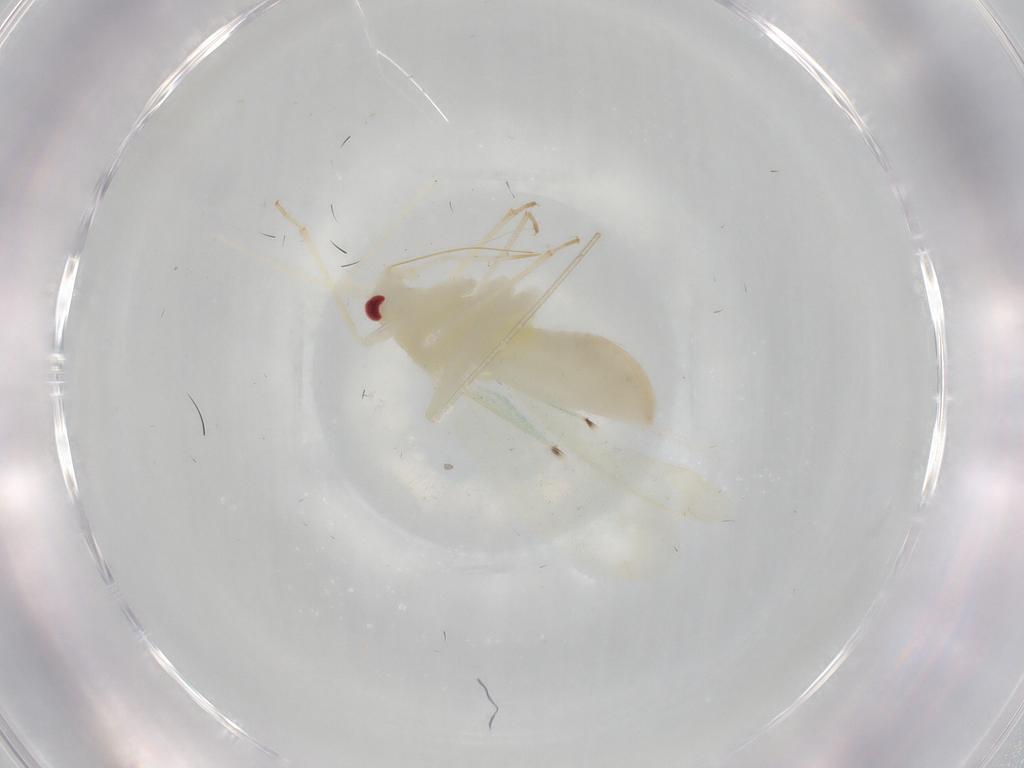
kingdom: Animalia
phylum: Arthropoda
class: Insecta
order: Hemiptera
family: Miridae
